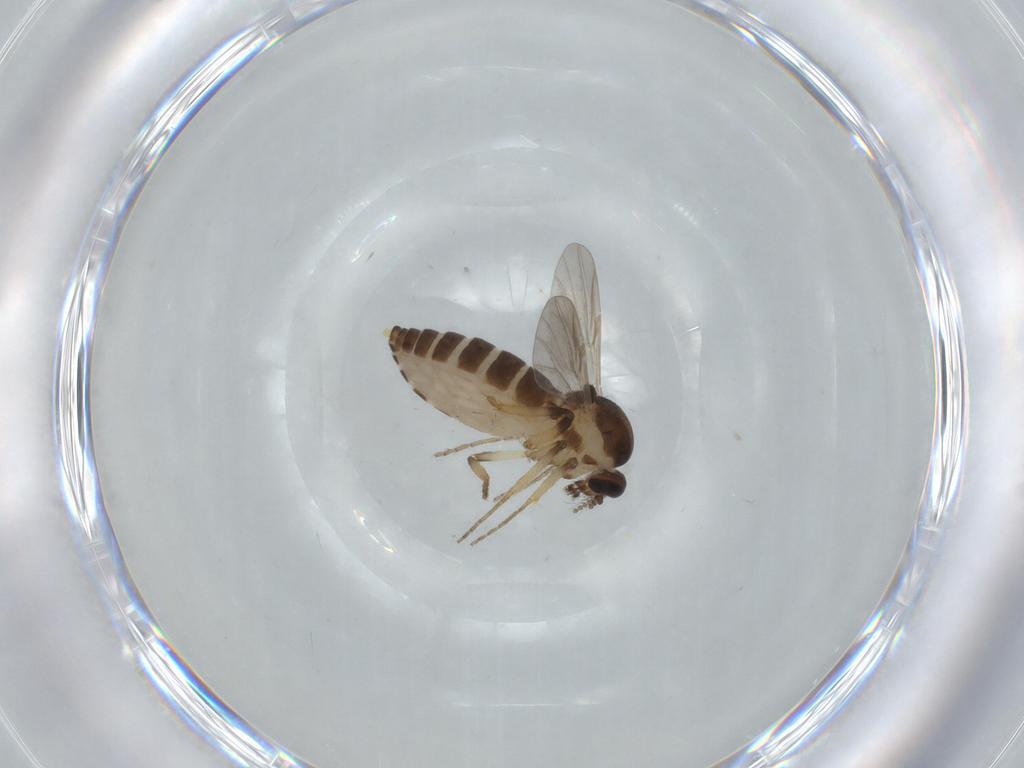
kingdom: Animalia
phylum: Arthropoda
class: Insecta
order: Diptera
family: Ceratopogonidae
